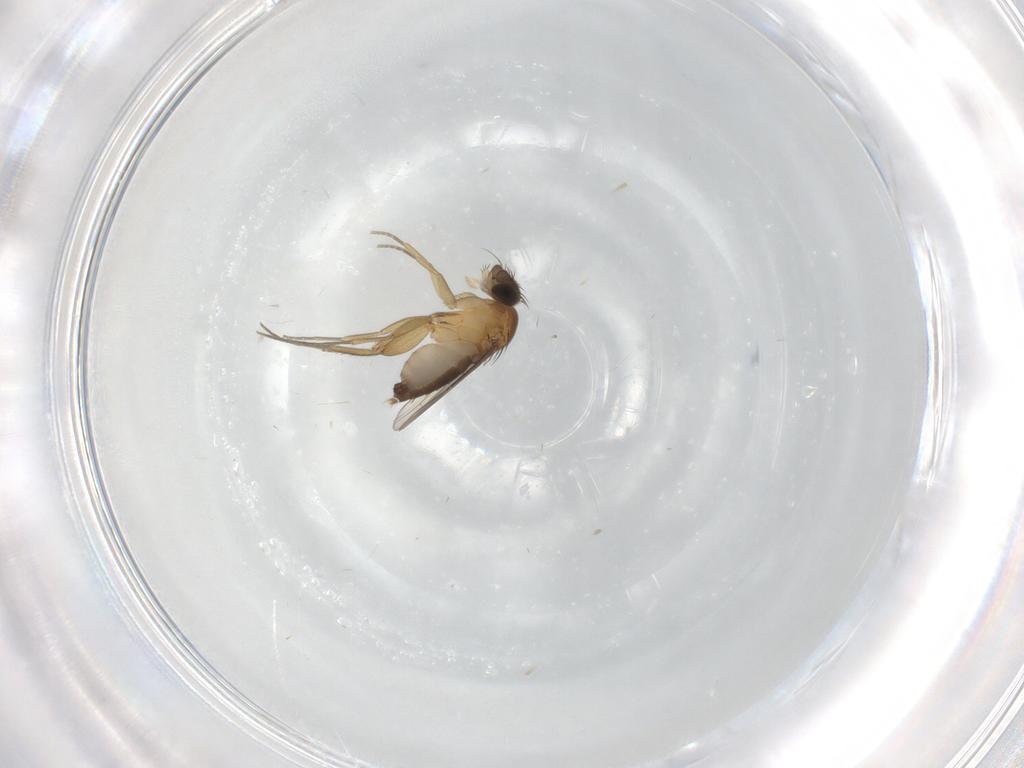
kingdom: Animalia
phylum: Arthropoda
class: Insecta
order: Diptera
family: Phoridae
